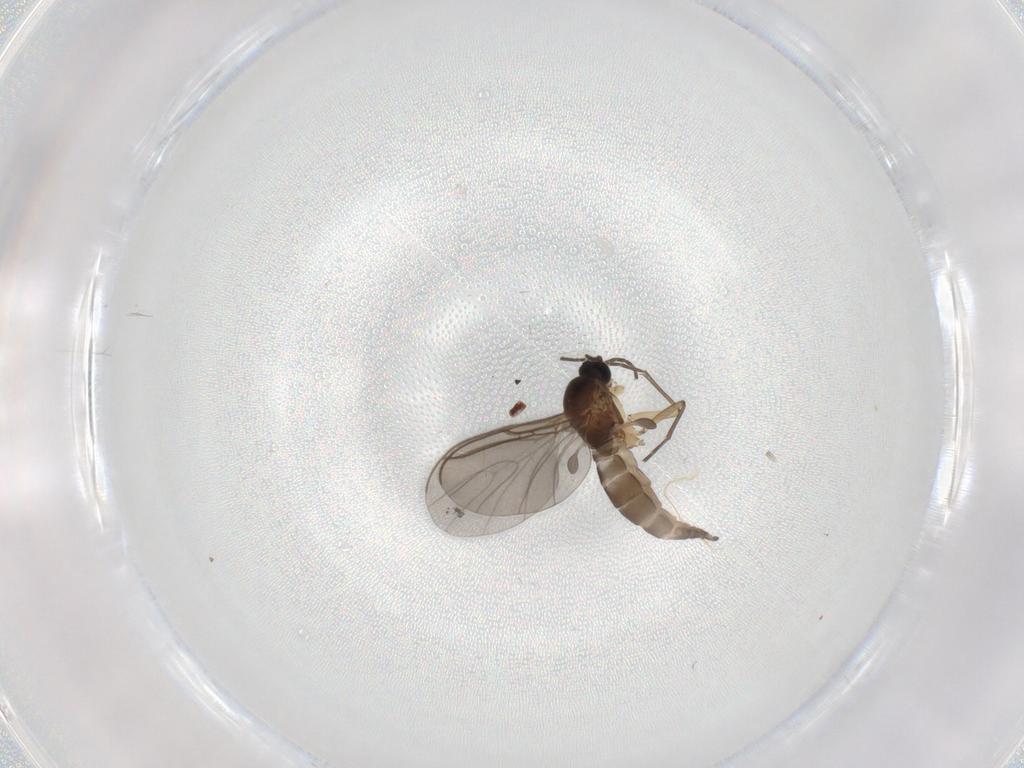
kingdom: Animalia
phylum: Arthropoda
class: Insecta
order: Diptera
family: Sciaridae
